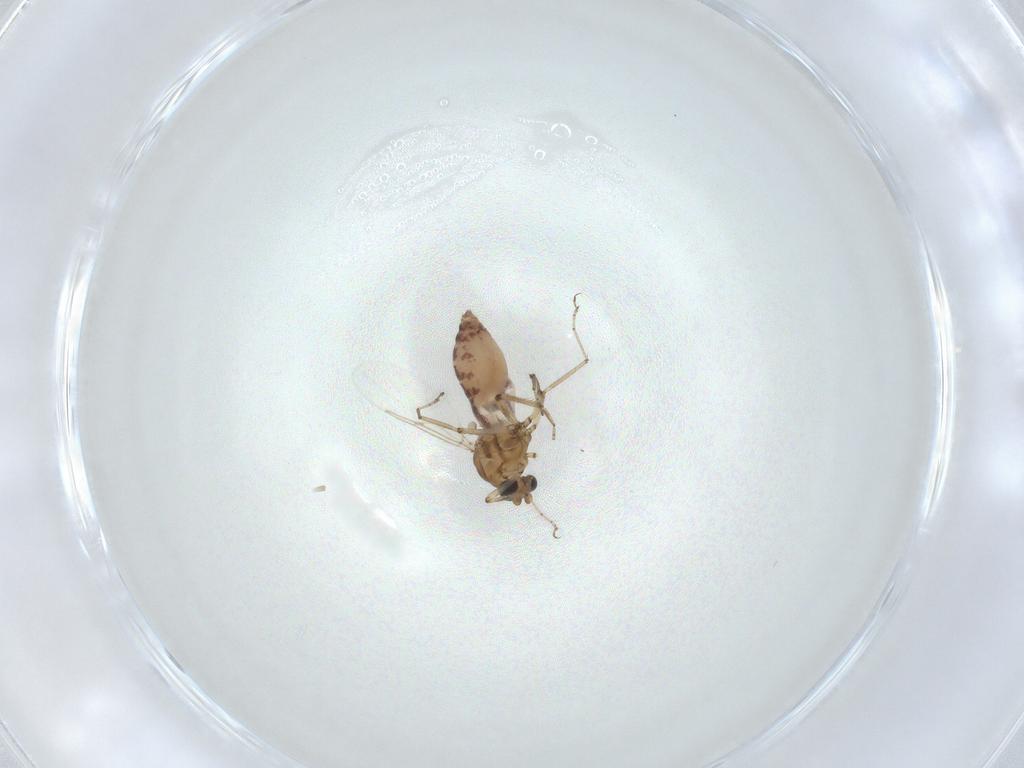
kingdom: Animalia
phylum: Arthropoda
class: Insecta
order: Diptera
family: Ceratopogonidae
